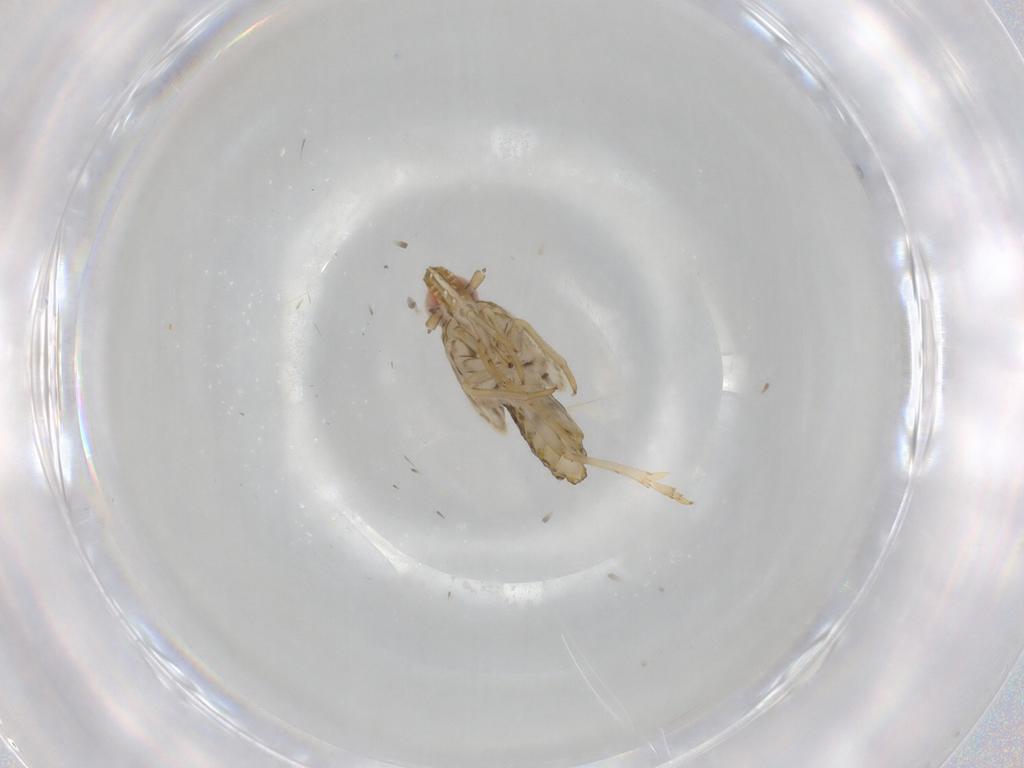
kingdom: Animalia
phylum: Arthropoda
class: Insecta
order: Hemiptera
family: Delphacidae
